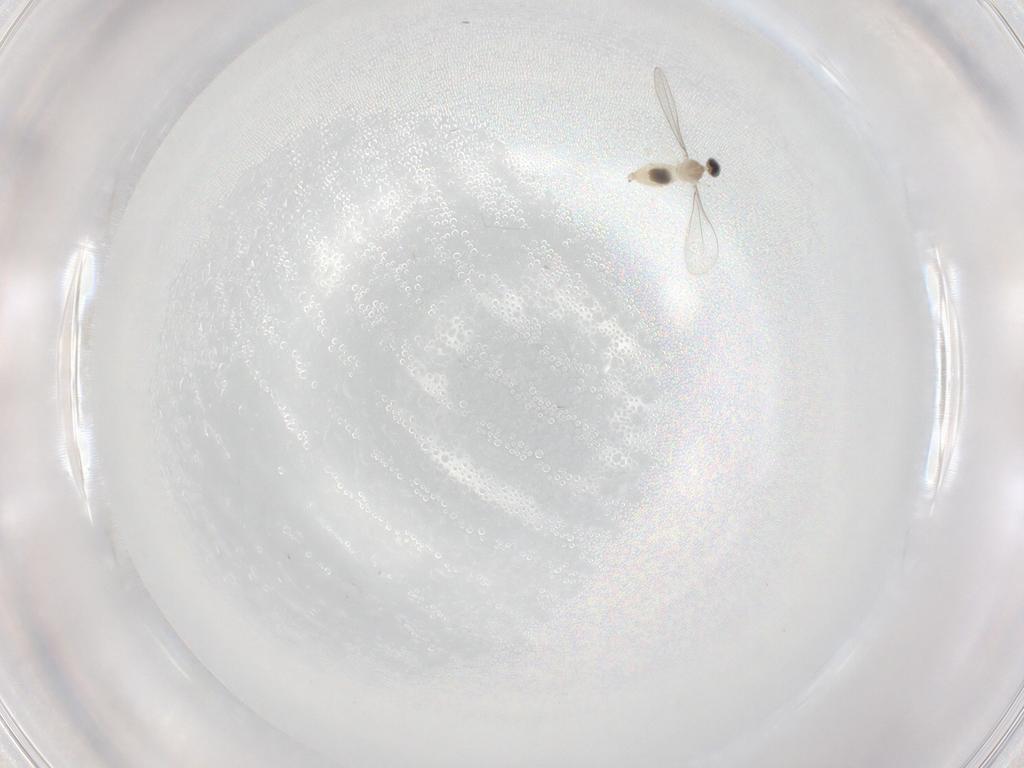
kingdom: Animalia
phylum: Arthropoda
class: Insecta
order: Diptera
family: Cecidomyiidae
